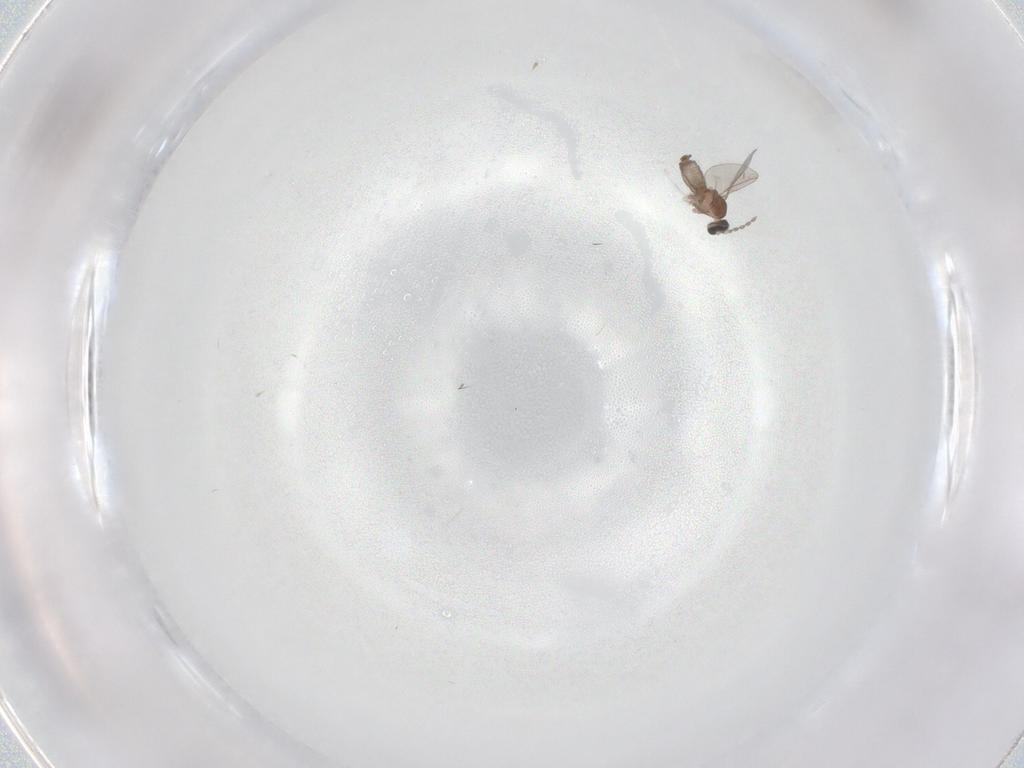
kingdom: Animalia
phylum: Arthropoda
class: Insecta
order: Diptera
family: Cecidomyiidae
